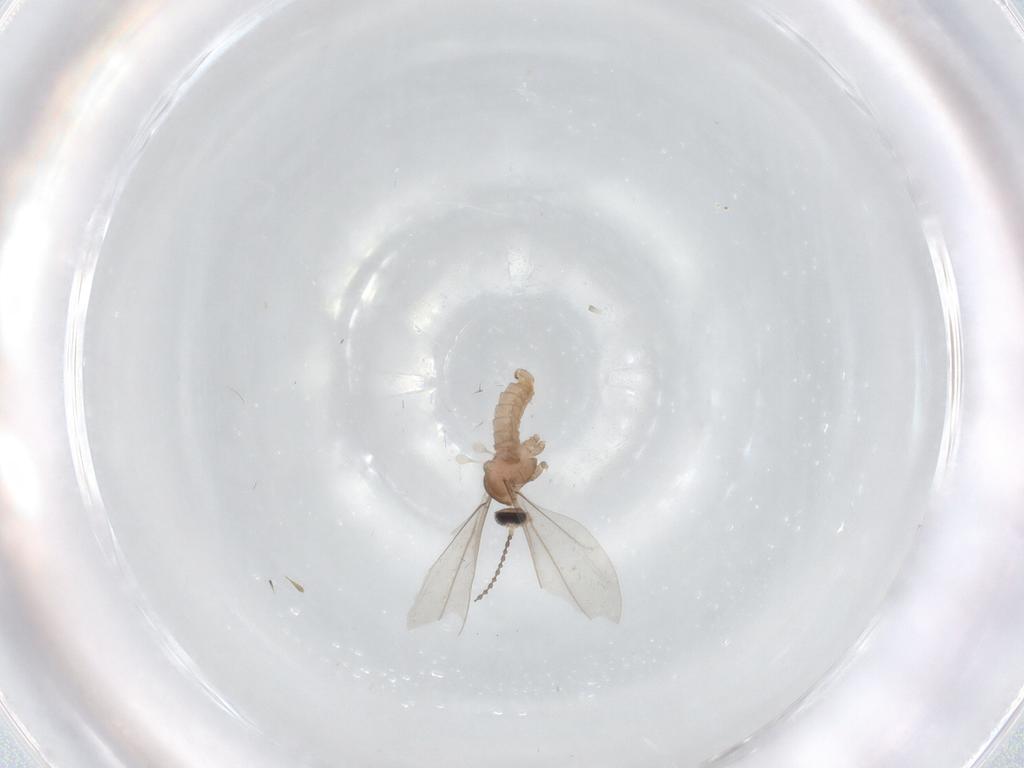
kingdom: Animalia
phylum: Arthropoda
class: Insecta
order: Diptera
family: Cecidomyiidae
